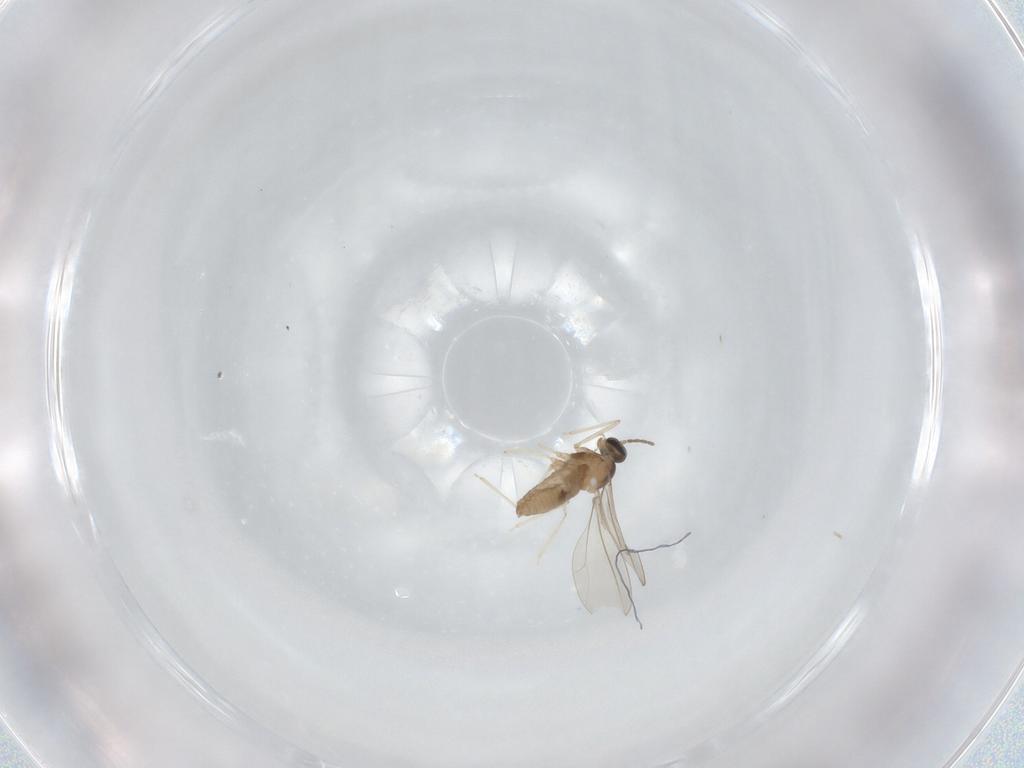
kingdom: Animalia
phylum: Arthropoda
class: Insecta
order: Diptera
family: Cecidomyiidae
